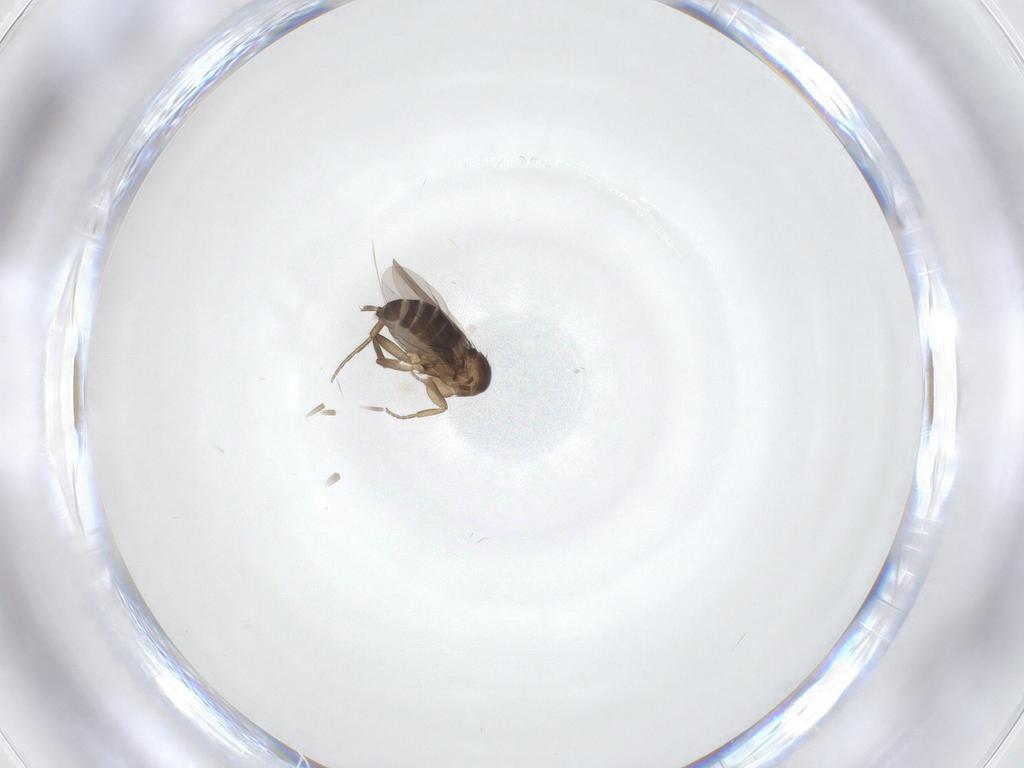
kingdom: Animalia
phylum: Arthropoda
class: Insecta
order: Diptera
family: Phoridae
